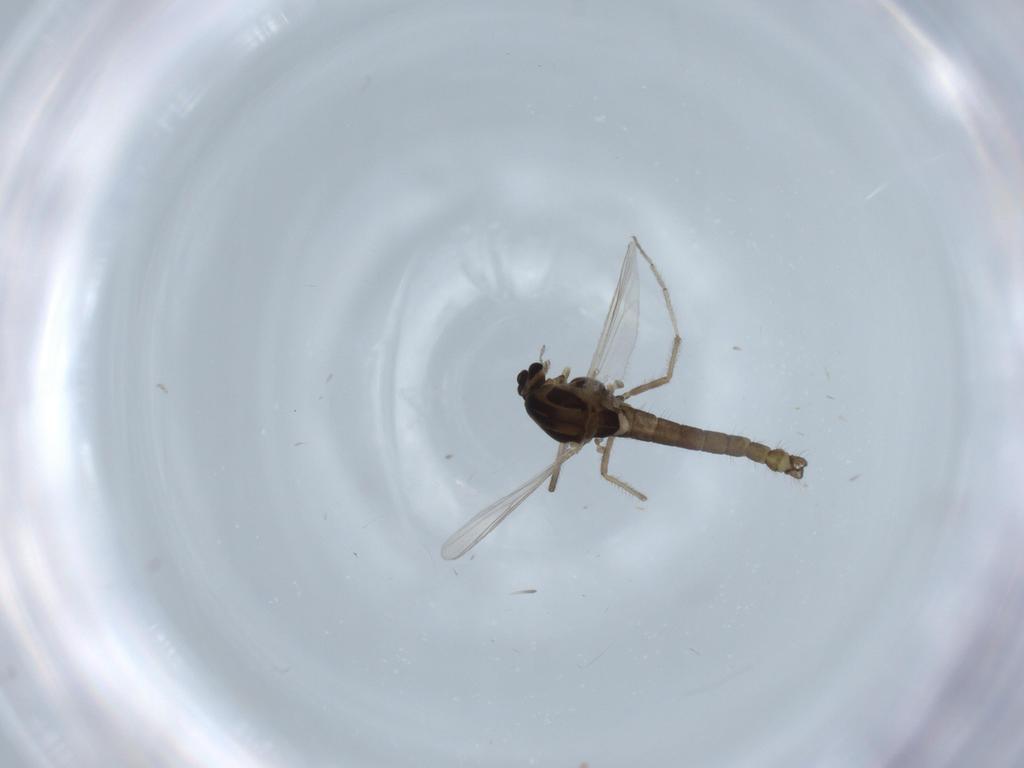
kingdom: Animalia
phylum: Arthropoda
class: Insecta
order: Diptera
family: Chironomidae
